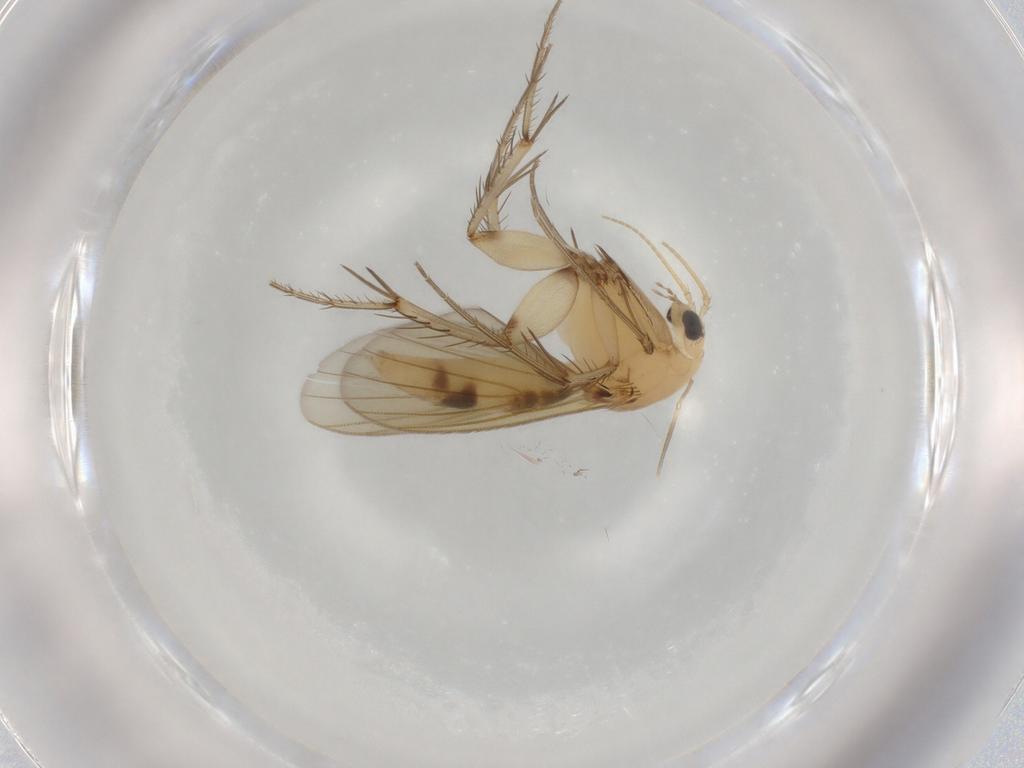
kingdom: Animalia
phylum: Arthropoda
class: Insecta
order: Diptera
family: Mycetophilidae
